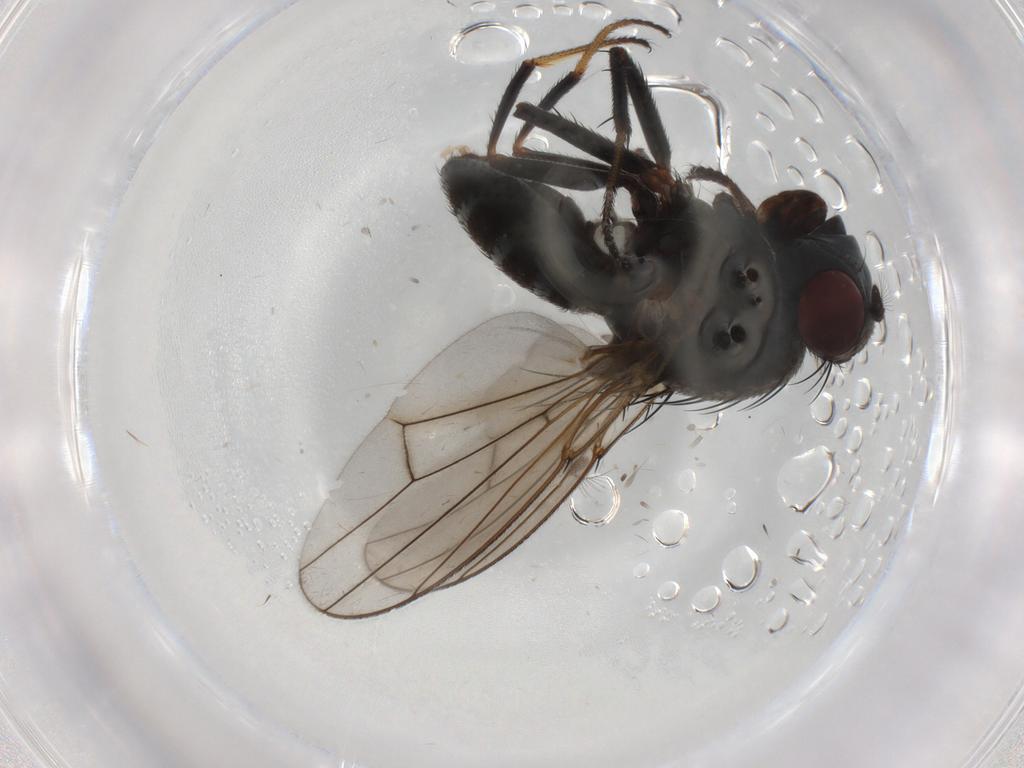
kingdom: Animalia
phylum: Arthropoda
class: Insecta
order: Diptera
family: Ephydridae
